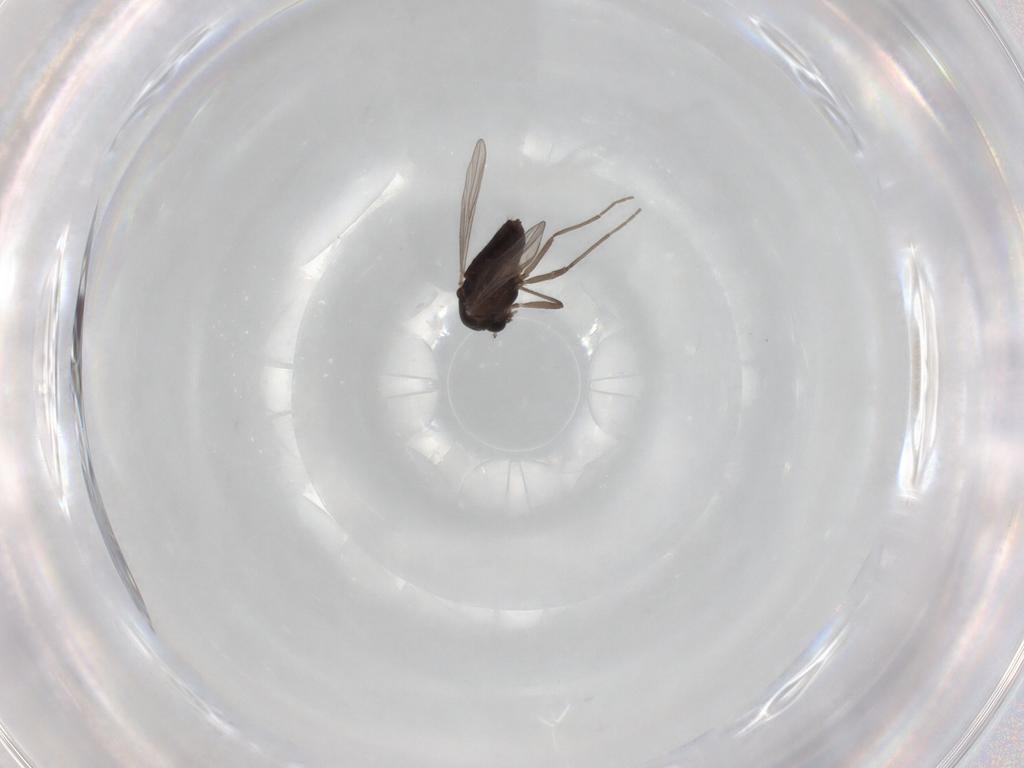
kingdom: Animalia
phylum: Arthropoda
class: Insecta
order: Diptera
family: Chironomidae
